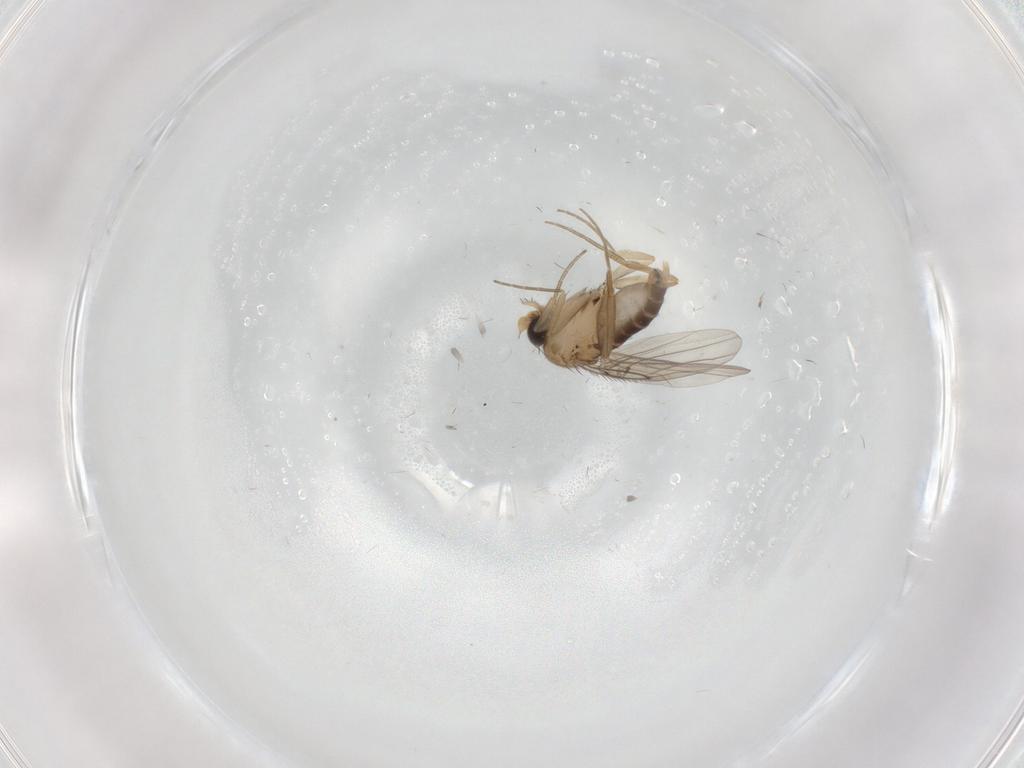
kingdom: Animalia
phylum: Arthropoda
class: Insecta
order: Diptera
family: Phoridae
